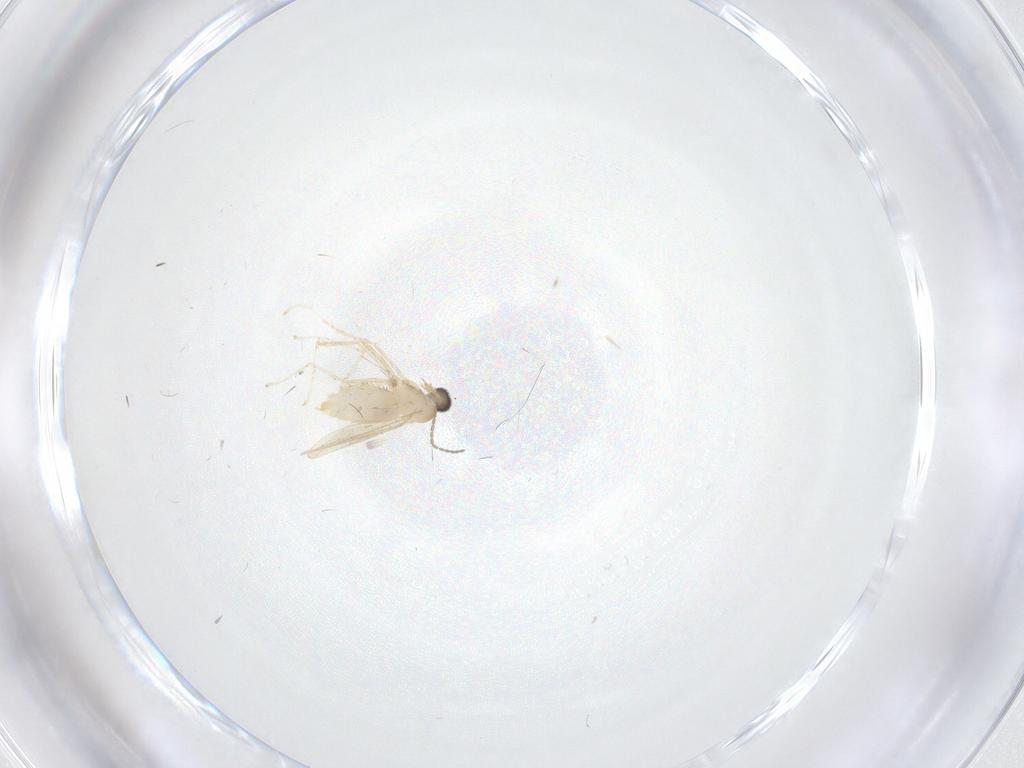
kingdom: Animalia
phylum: Arthropoda
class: Insecta
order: Diptera
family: Cecidomyiidae
